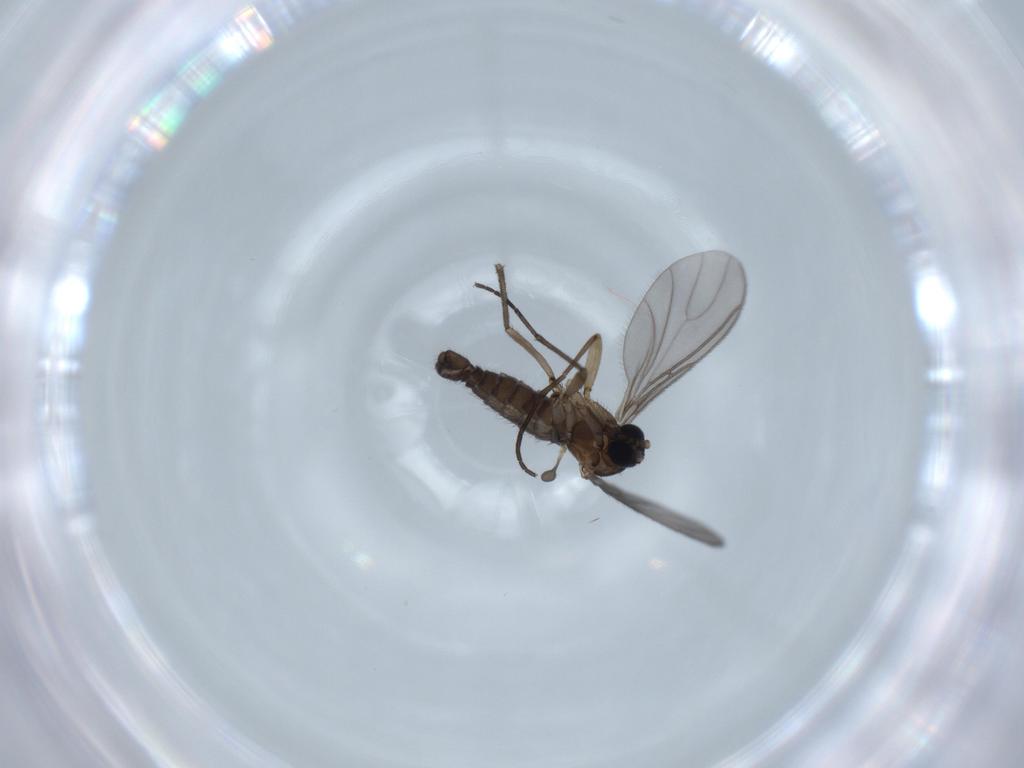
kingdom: Animalia
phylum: Arthropoda
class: Insecta
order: Diptera
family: Sciaridae
